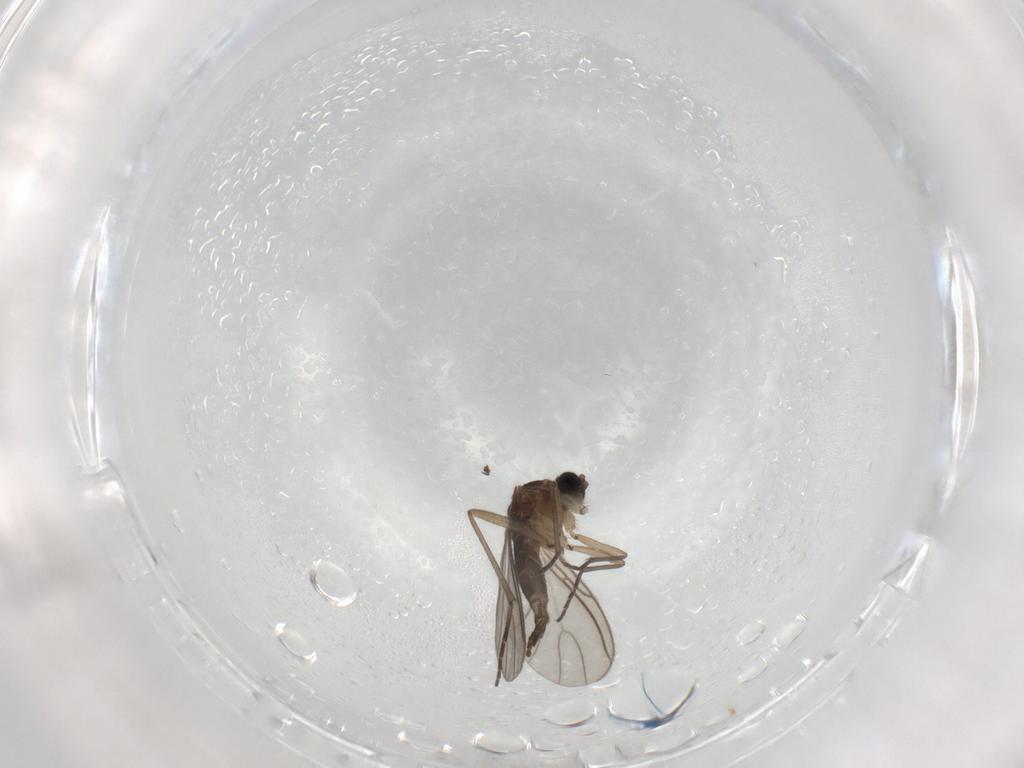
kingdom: Animalia
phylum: Arthropoda
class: Insecta
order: Diptera
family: Sciaridae
